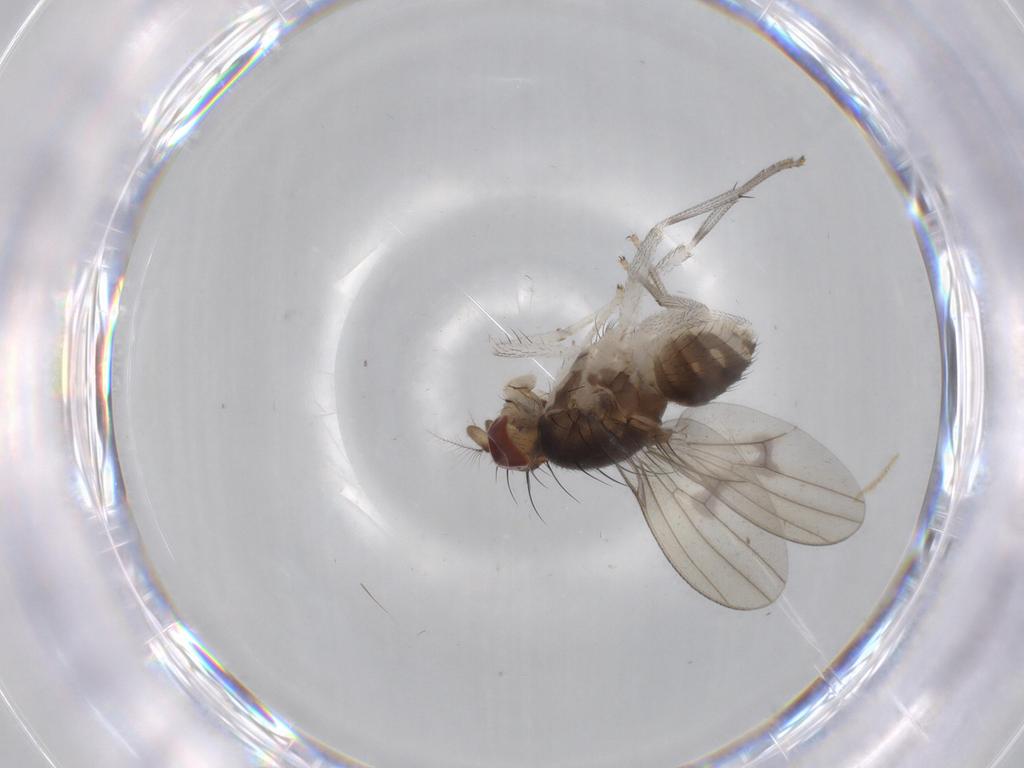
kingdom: Animalia
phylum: Arthropoda
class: Insecta
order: Diptera
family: Chironomidae
